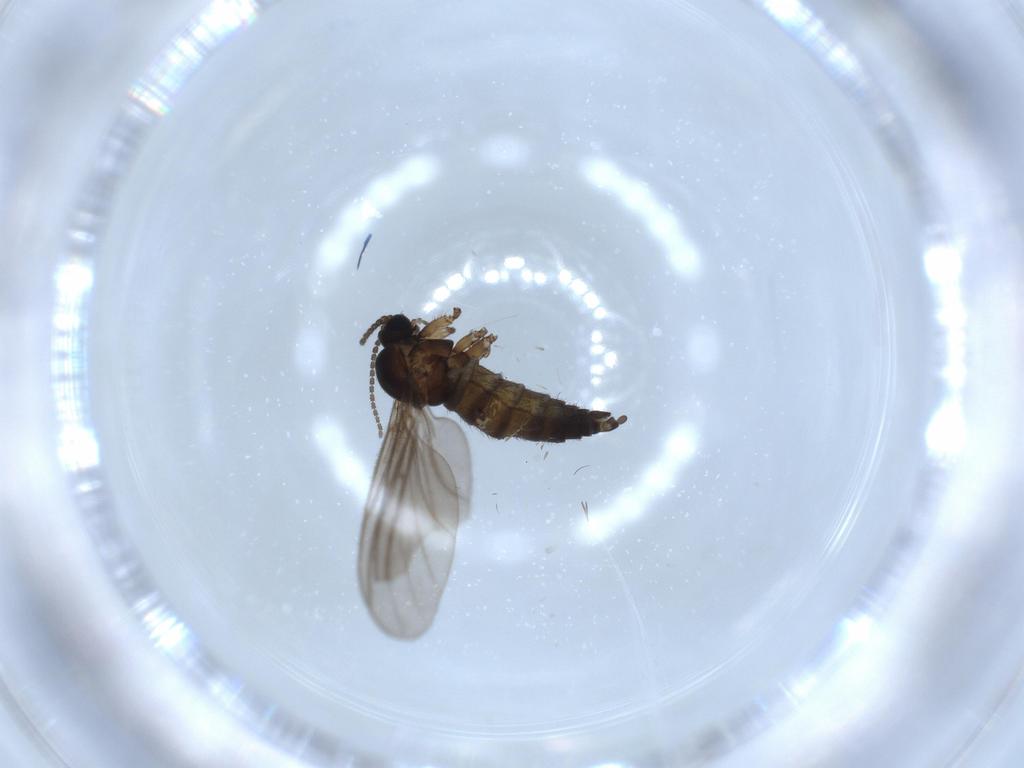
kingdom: Animalia
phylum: Arthropoda
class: Insecta
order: Diptera
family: Sciaridae
